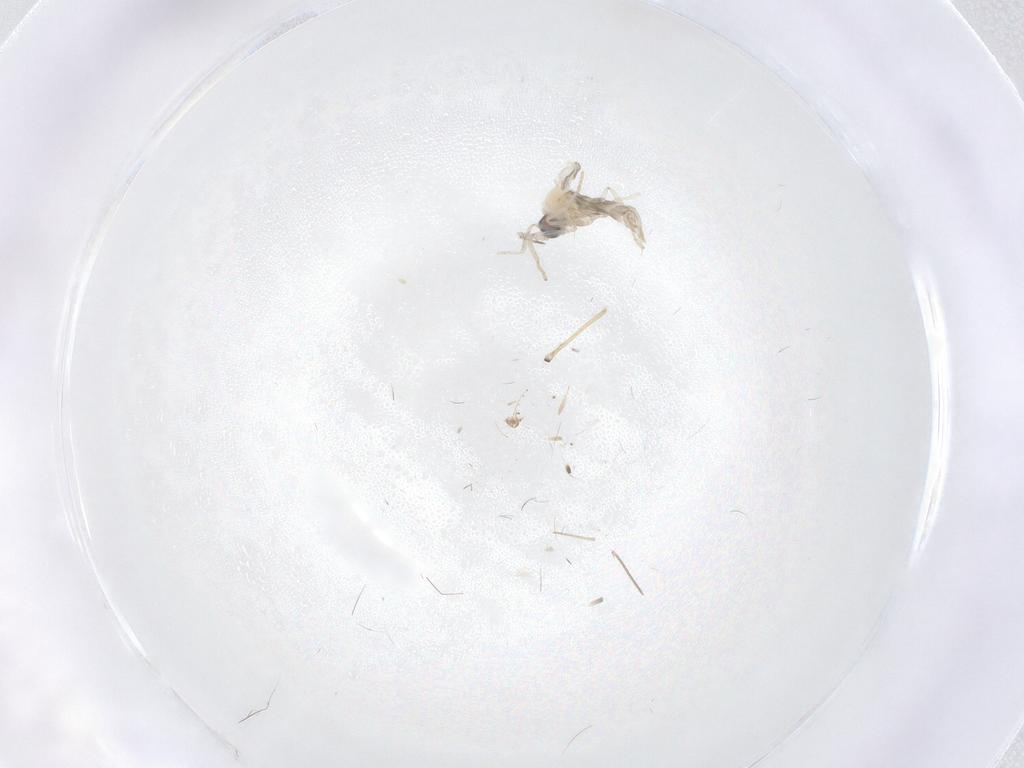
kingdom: Animalia
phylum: Arthropoda
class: Insecta
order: Diptera
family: Cecidomyiidae
